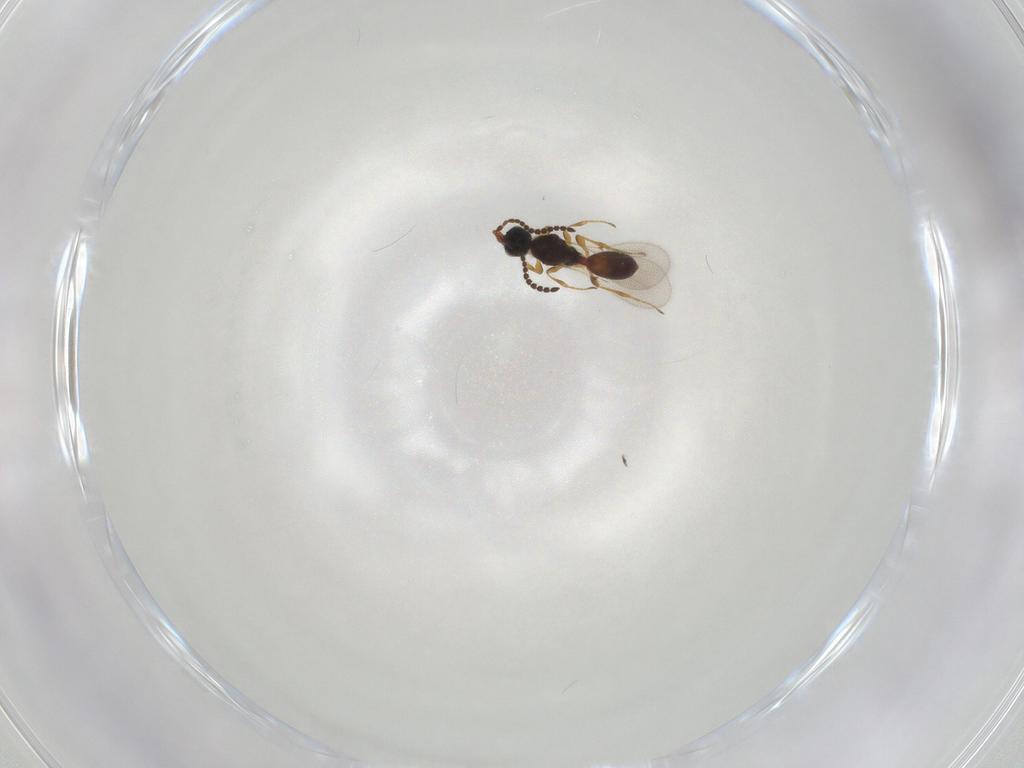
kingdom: Animalia
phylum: Arthropoda
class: Insecta
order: Hymenoptera
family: Diapriidae
